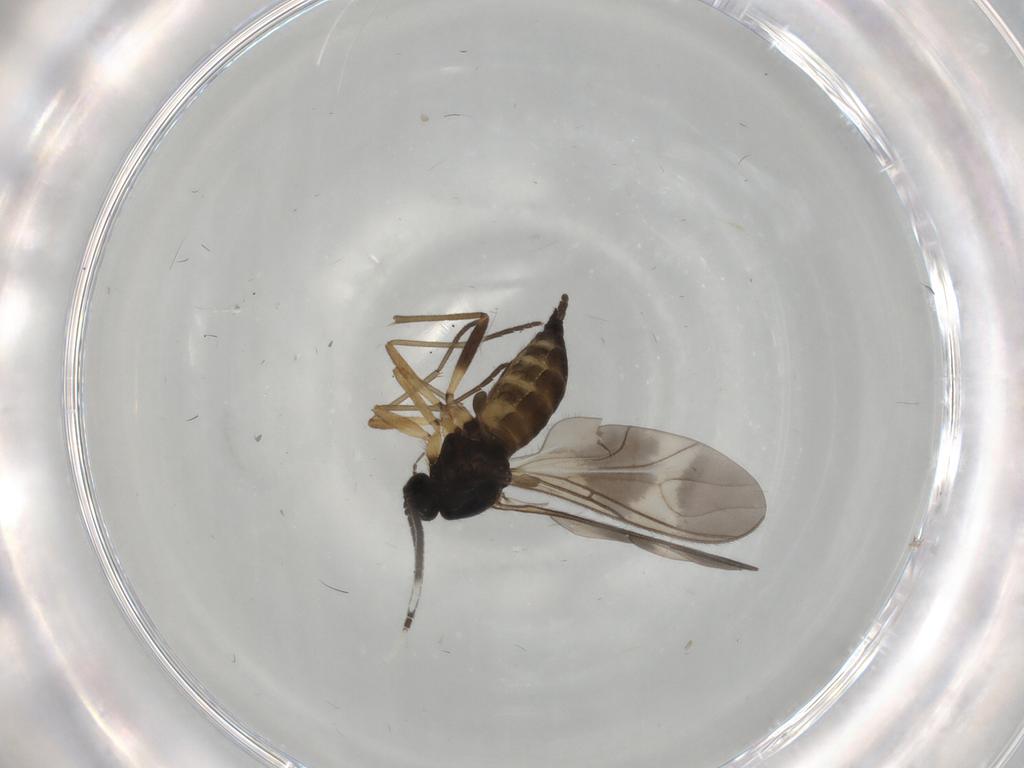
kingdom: Animalia
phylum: Arthropoda
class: Insecta
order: Diptera
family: Sciaridae
